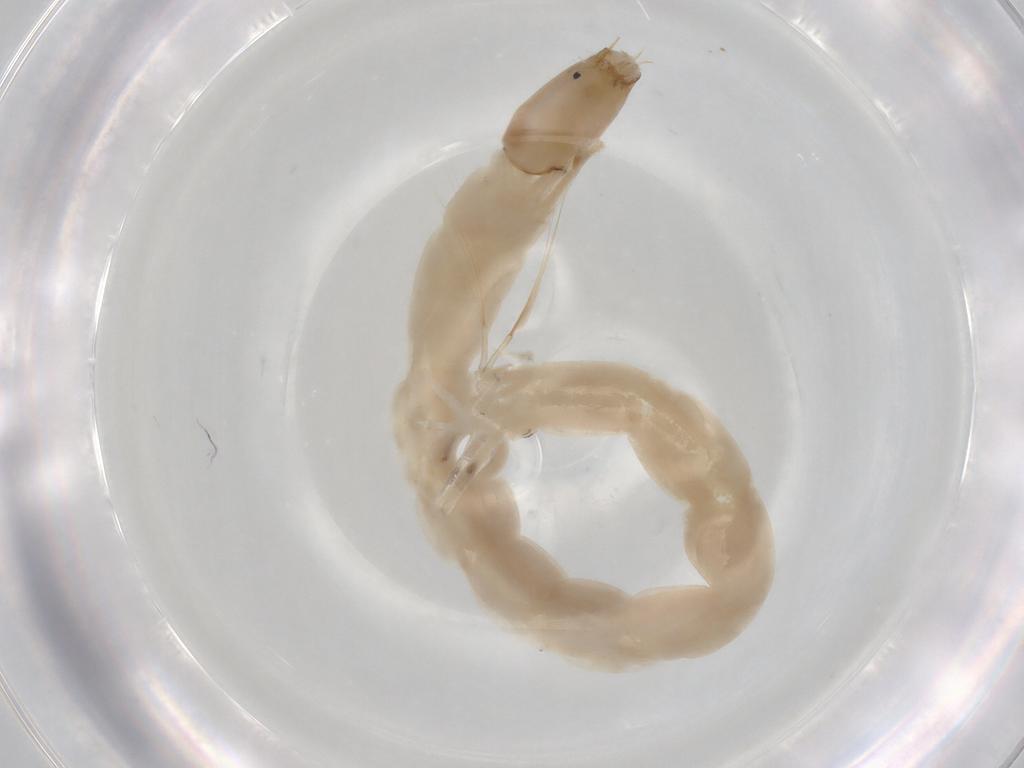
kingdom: Animalia
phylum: Arthropoda
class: Insecta
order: Diptera
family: Chironomidae
